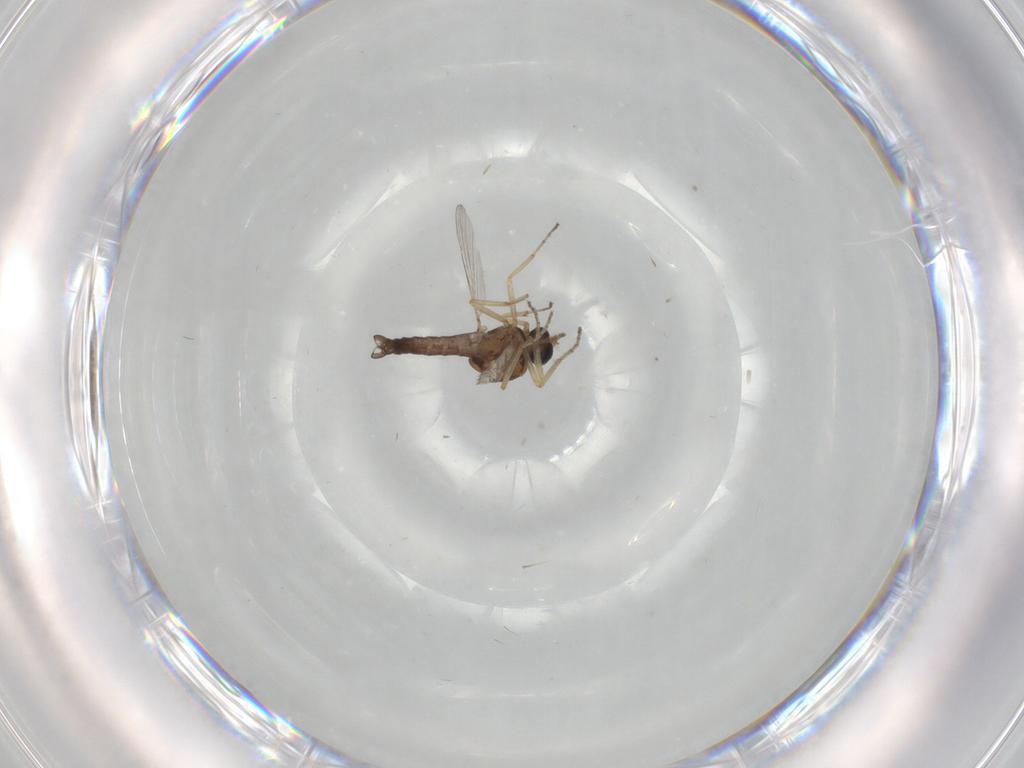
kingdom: Animalia
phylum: Arthropoda
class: Insecta
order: Diptera
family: Ceratopogonidae
